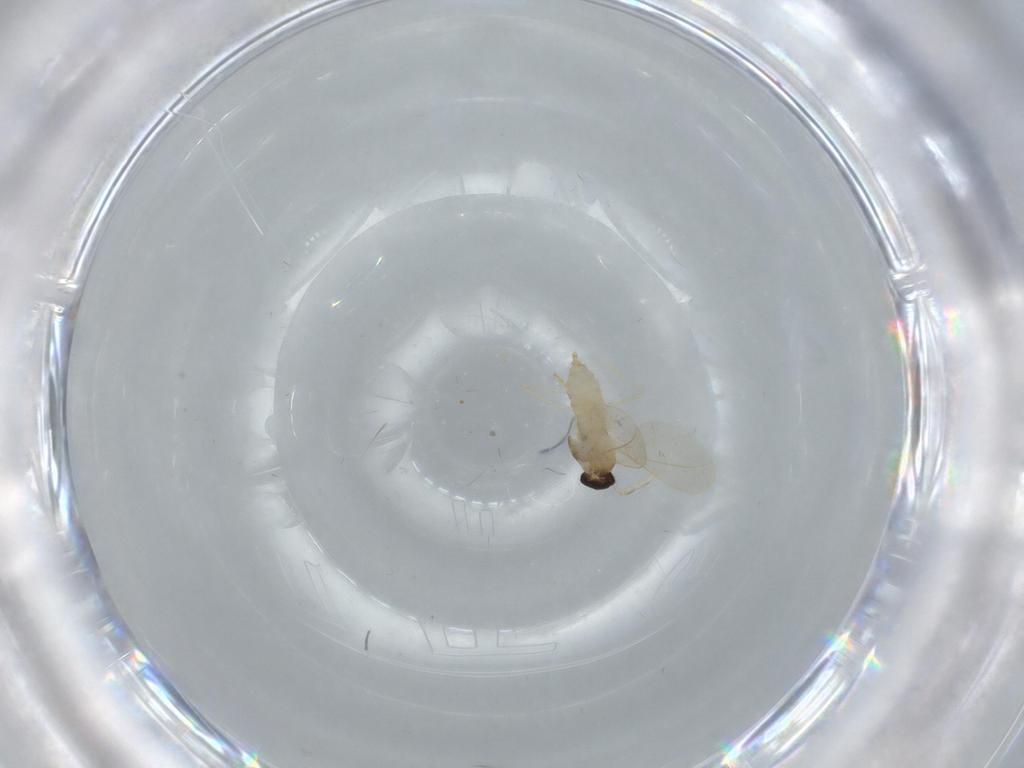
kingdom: Animalia
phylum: Arthropoda
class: Insecta
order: Diptera
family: Cecidomyiidae
